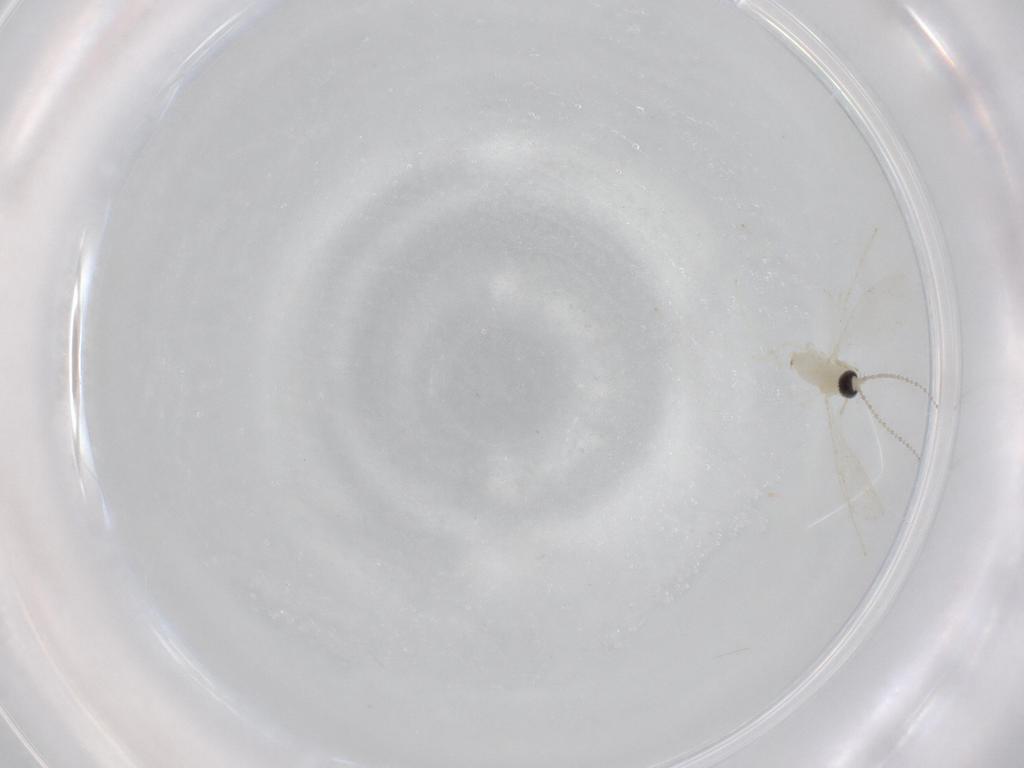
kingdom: Animalia
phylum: Arthropoda
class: Insecta
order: Diptera
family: Cecidomyiidae
